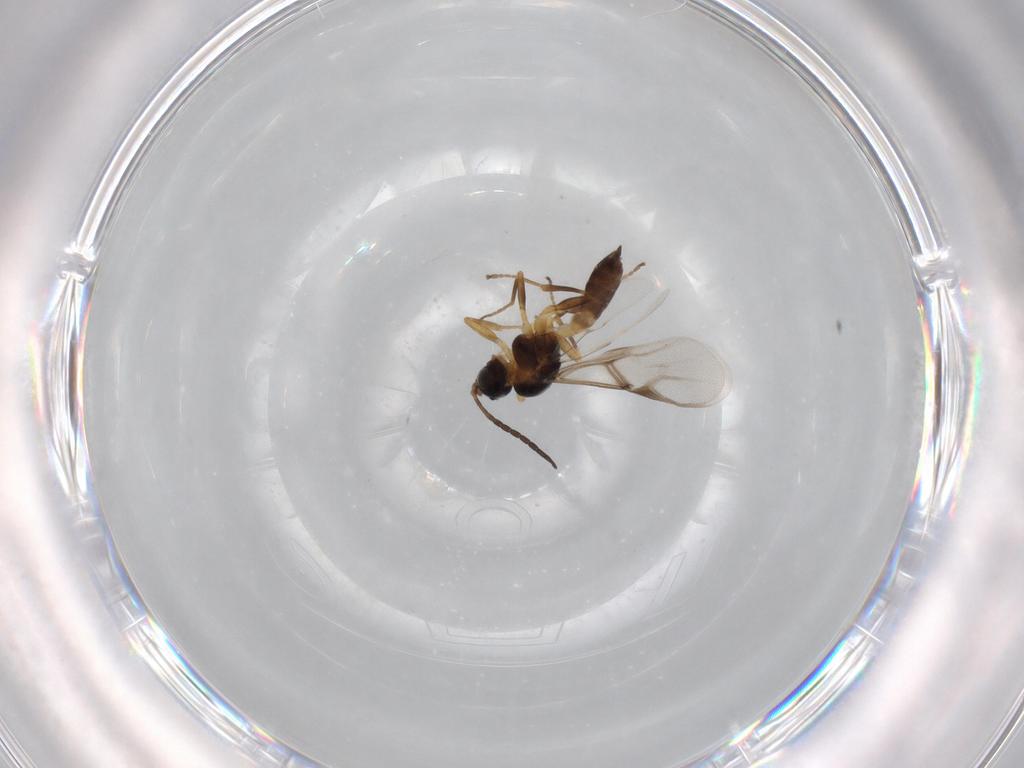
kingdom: Animalia
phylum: Arthropoda
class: Insecta
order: Hymenoptera
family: Braconidae
